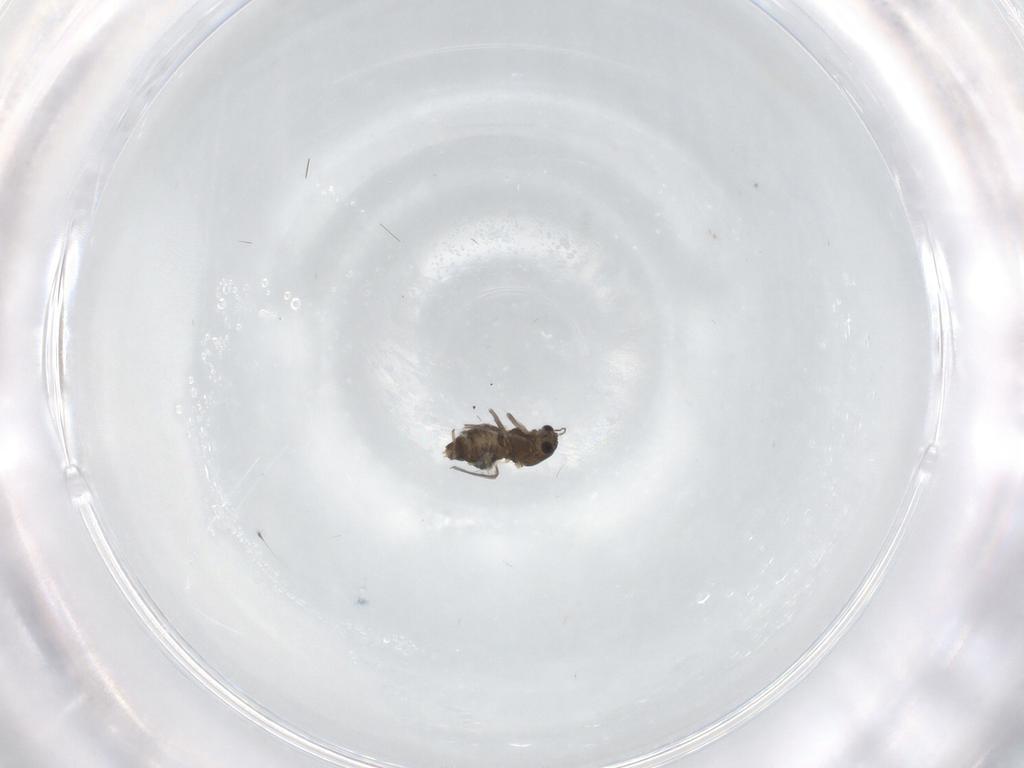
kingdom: Animalia
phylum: Arthropoda
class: Insecta
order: Diptera
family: Chironomidae
